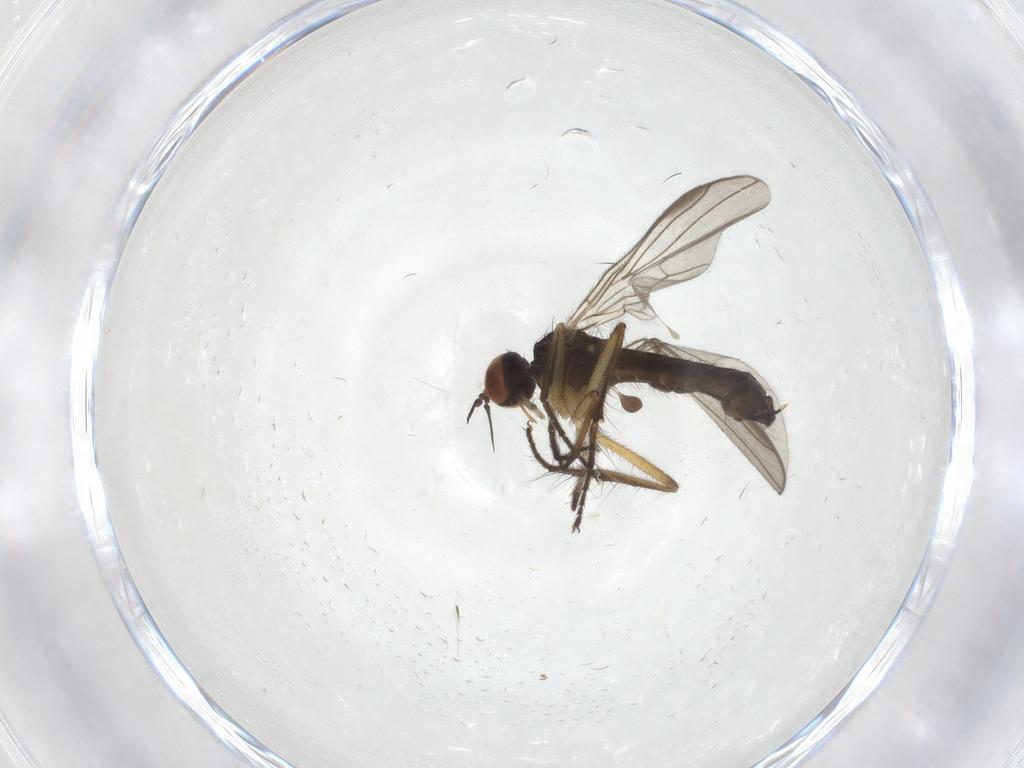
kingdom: Animalia
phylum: Arthropoda
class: Insecta
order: Diptera
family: Empididae
